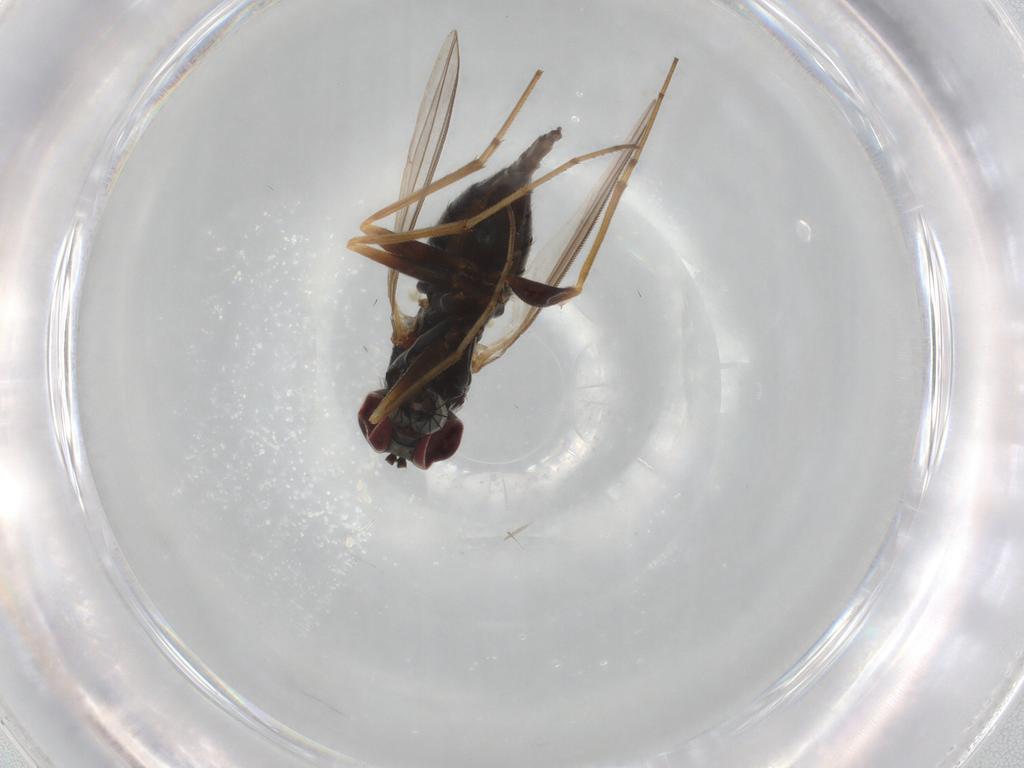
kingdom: Animalia
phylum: Arthropoda
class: Insecta
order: Diptera
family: Dolichopodidae
